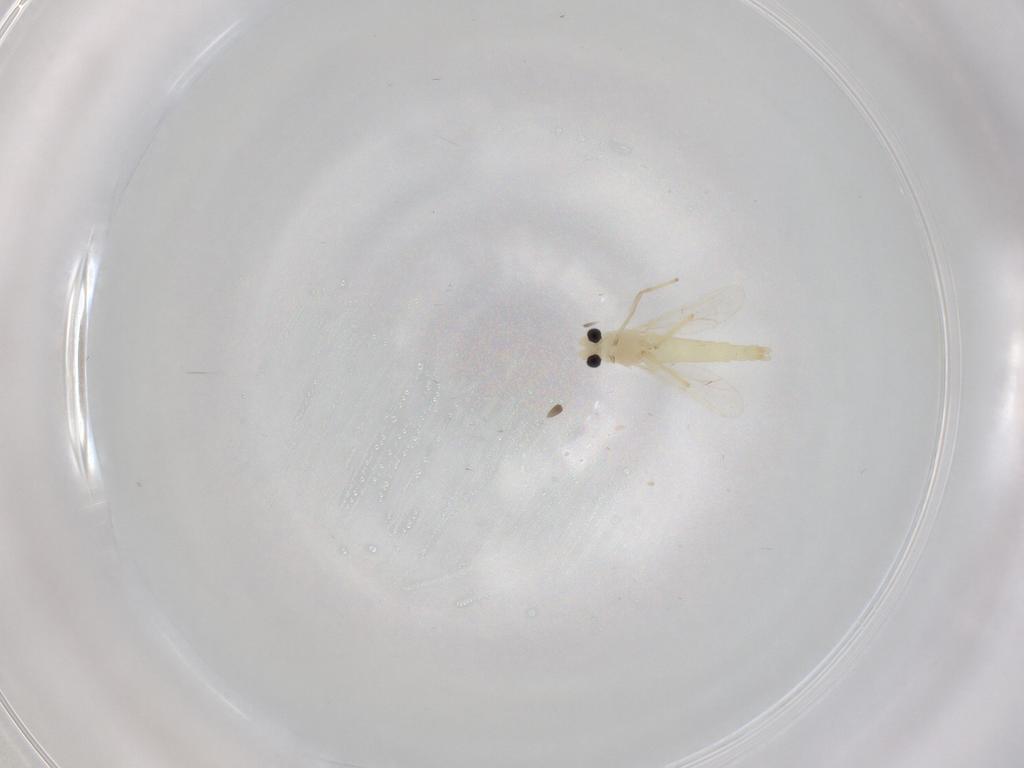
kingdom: Animalia
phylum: Arthropoda
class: Insecta
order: Diptera
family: Chironomidae
